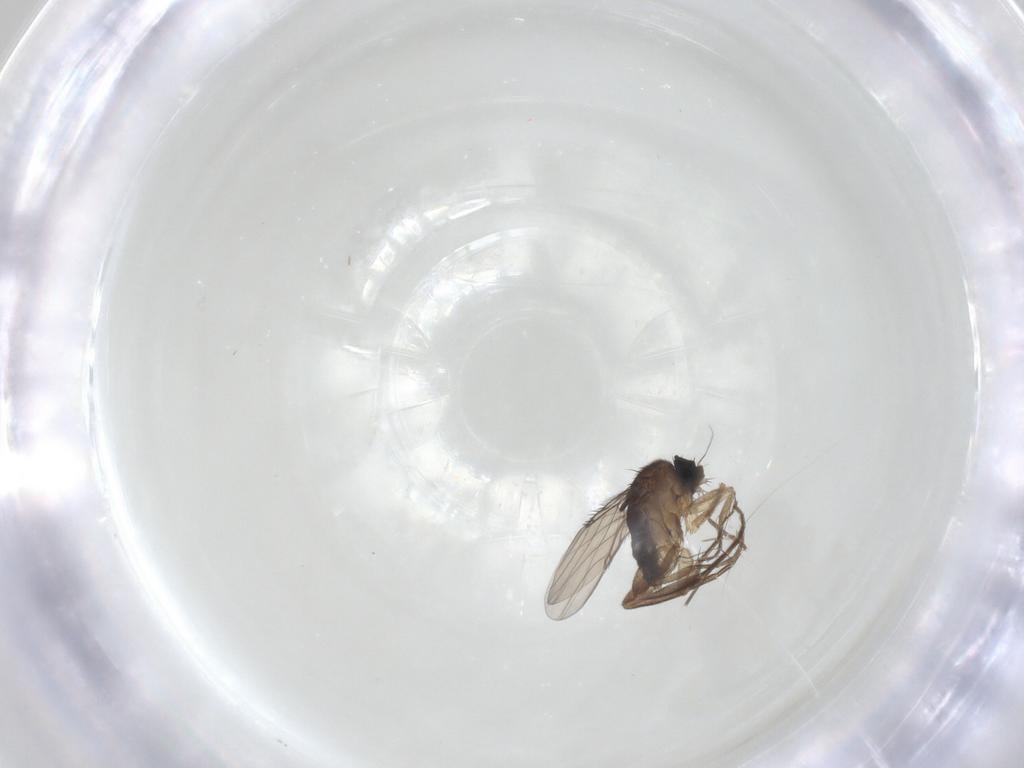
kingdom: Animalia
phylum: Arthropoda
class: Insecta
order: Diptera
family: Phoridae
